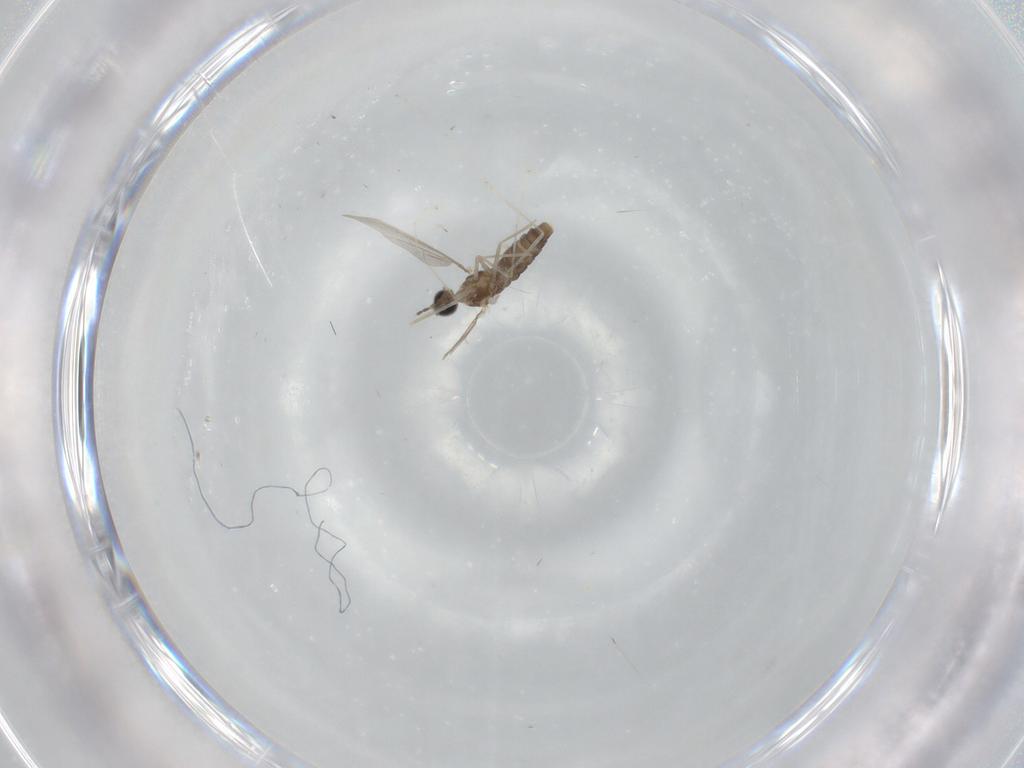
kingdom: Animalia
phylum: Arthropoda
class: Insecta
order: Diptera
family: Cecidomyiidae
